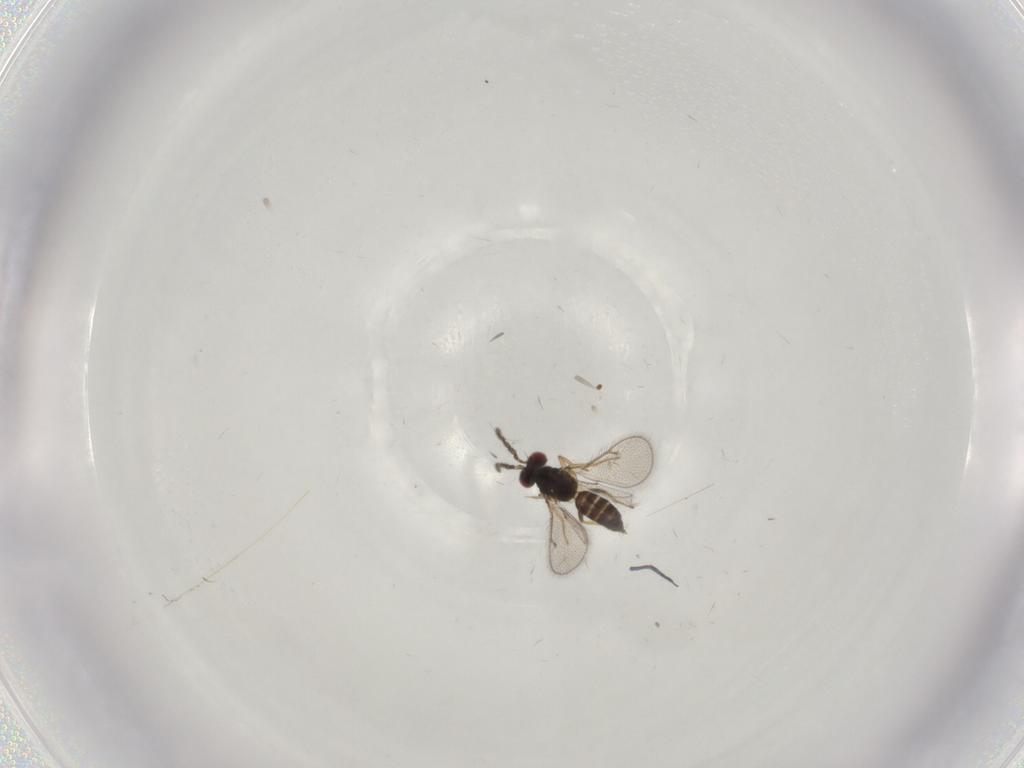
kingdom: Animalia
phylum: Arthropoda
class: Insecta
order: Hymenoptera
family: Eulophidae
